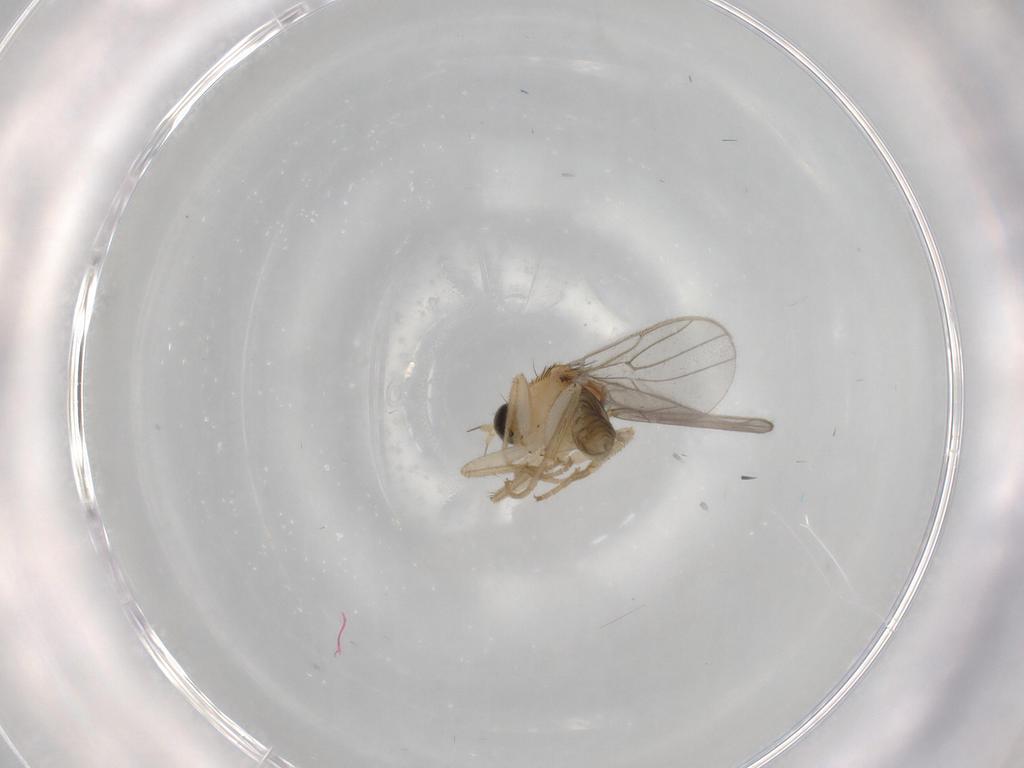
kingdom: Animalia
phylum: Arthropoda
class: Insecta
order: Diptera
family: Hybotidae
